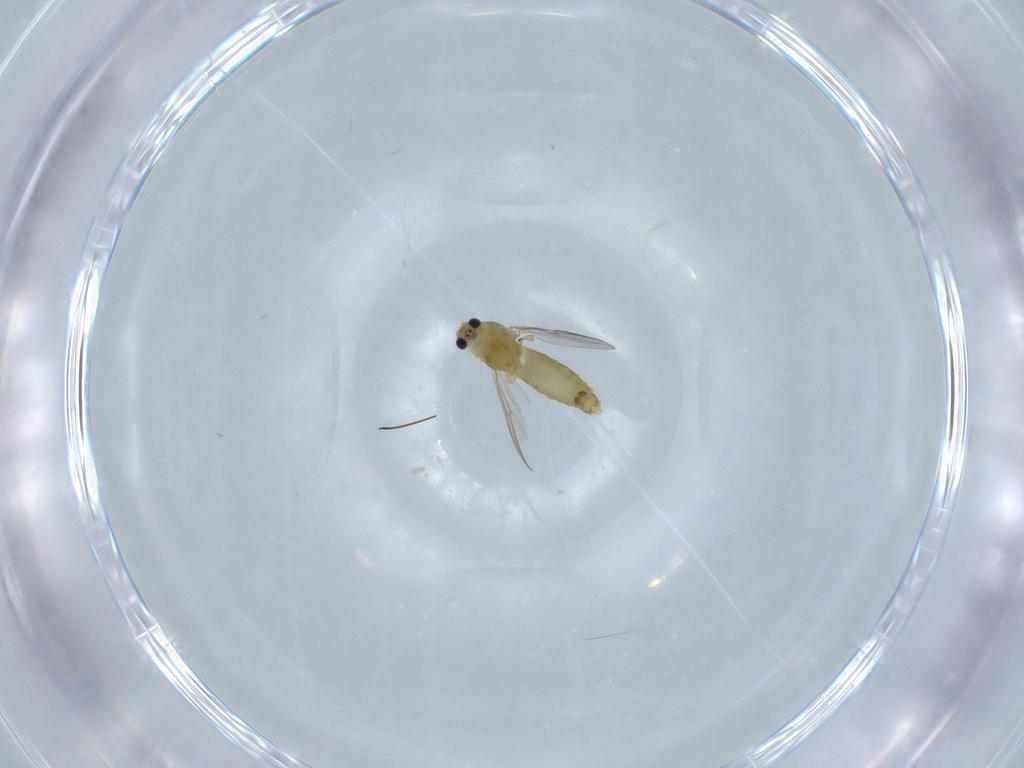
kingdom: Animalia
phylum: Arthropoda
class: Insecta
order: Diptera
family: Chironomidae
